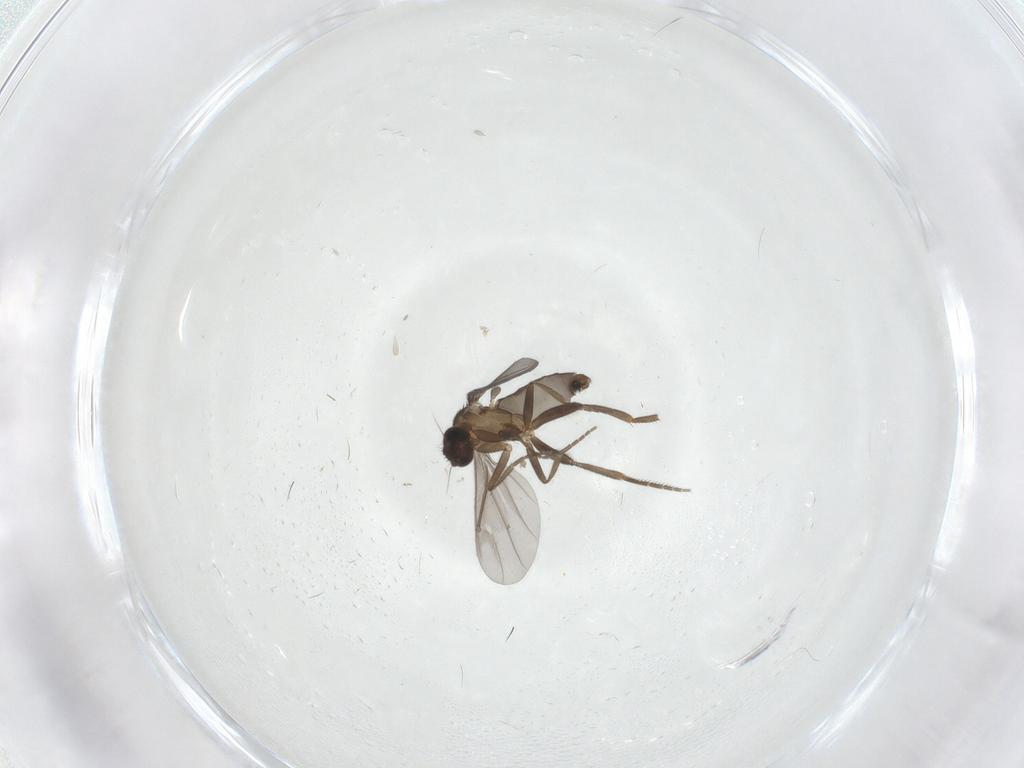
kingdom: Animalia
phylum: Arthropoda
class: Insecta
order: Diptera
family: Phoridae
